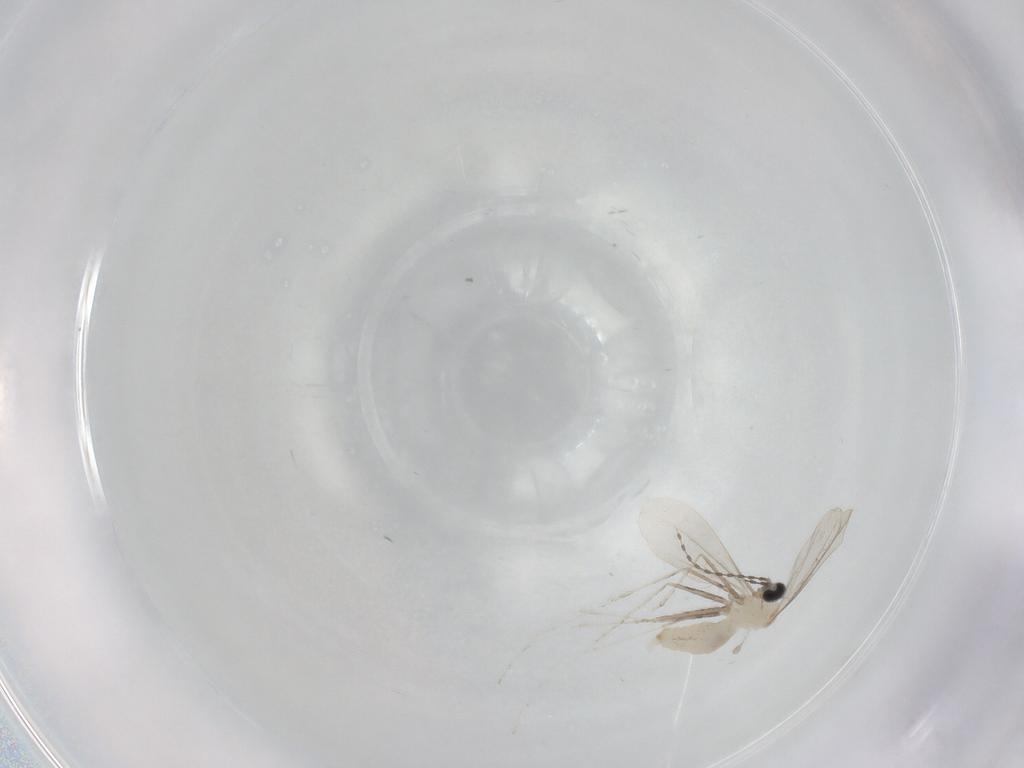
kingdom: Animalia
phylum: Arthropoda
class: Insecta
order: Diptera
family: Cecidomyiidae
